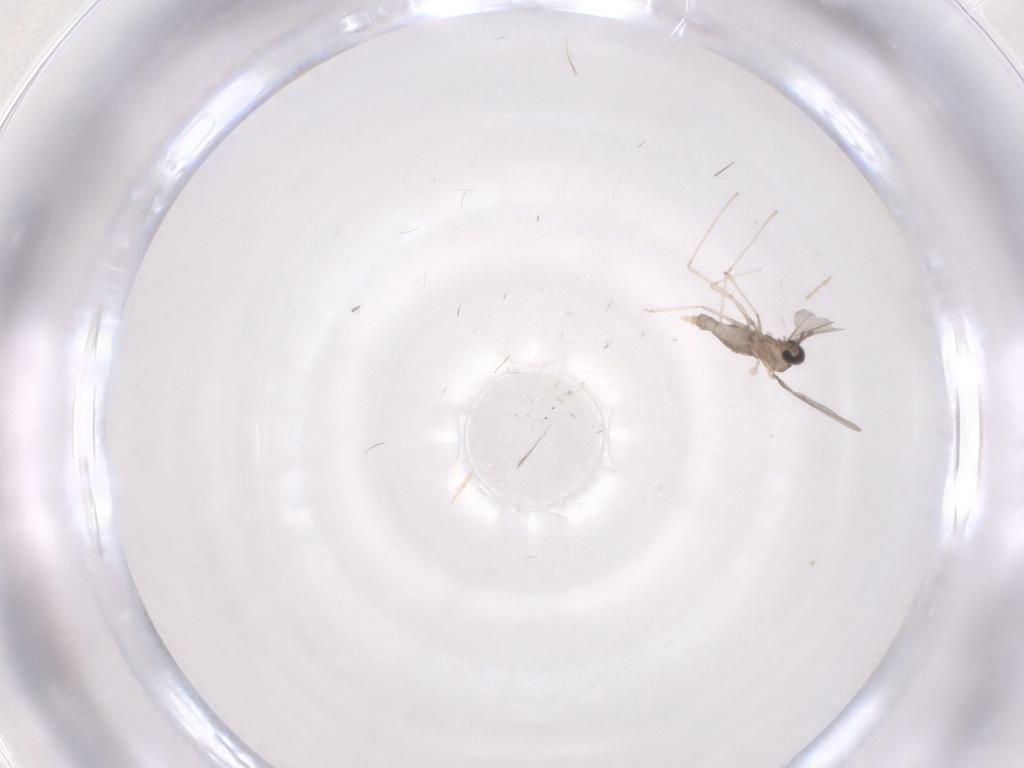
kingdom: Animalia
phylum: Arthropoda
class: Insecta
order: Diptera
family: Cecidomyiidae
